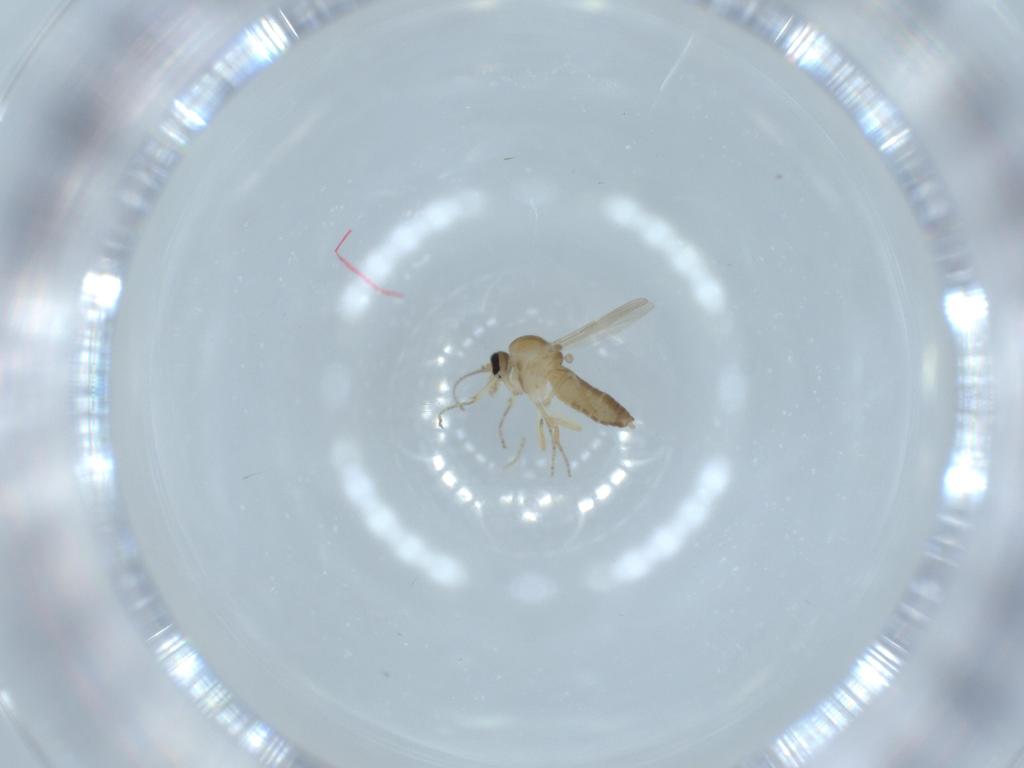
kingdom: Animalia
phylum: Arthropoda
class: Insecta
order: Diptera
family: Ceratopogonidae
